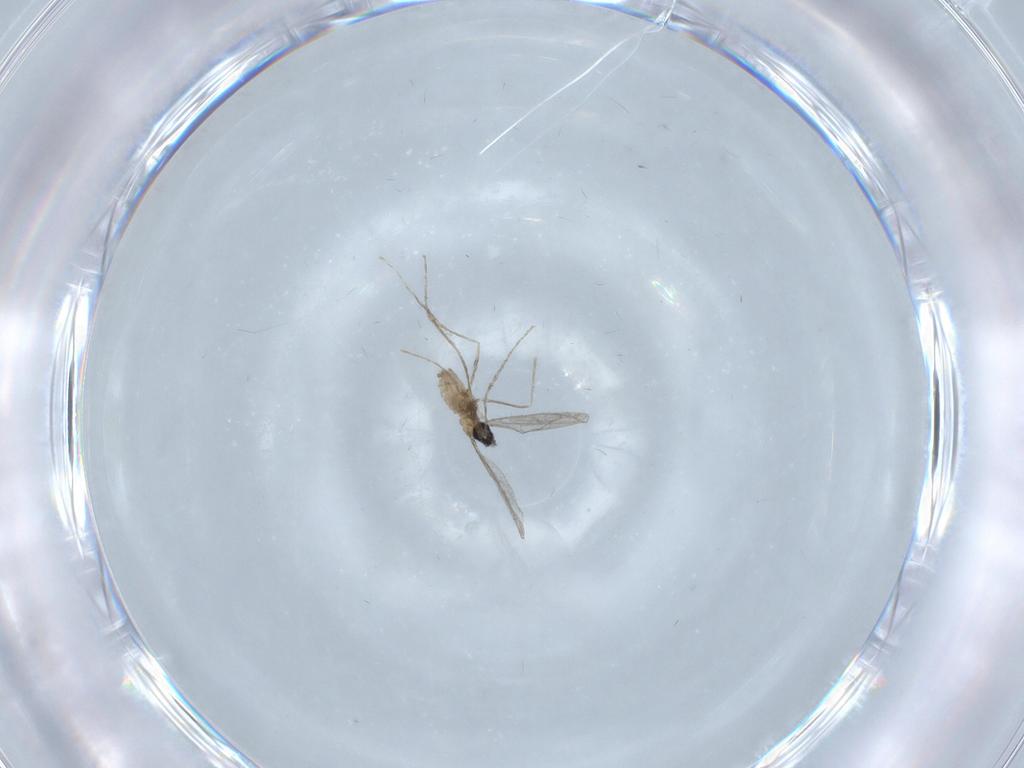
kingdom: Animalia
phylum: Arthropoda
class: Insecta
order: Diptera
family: Cecidomyiidae
